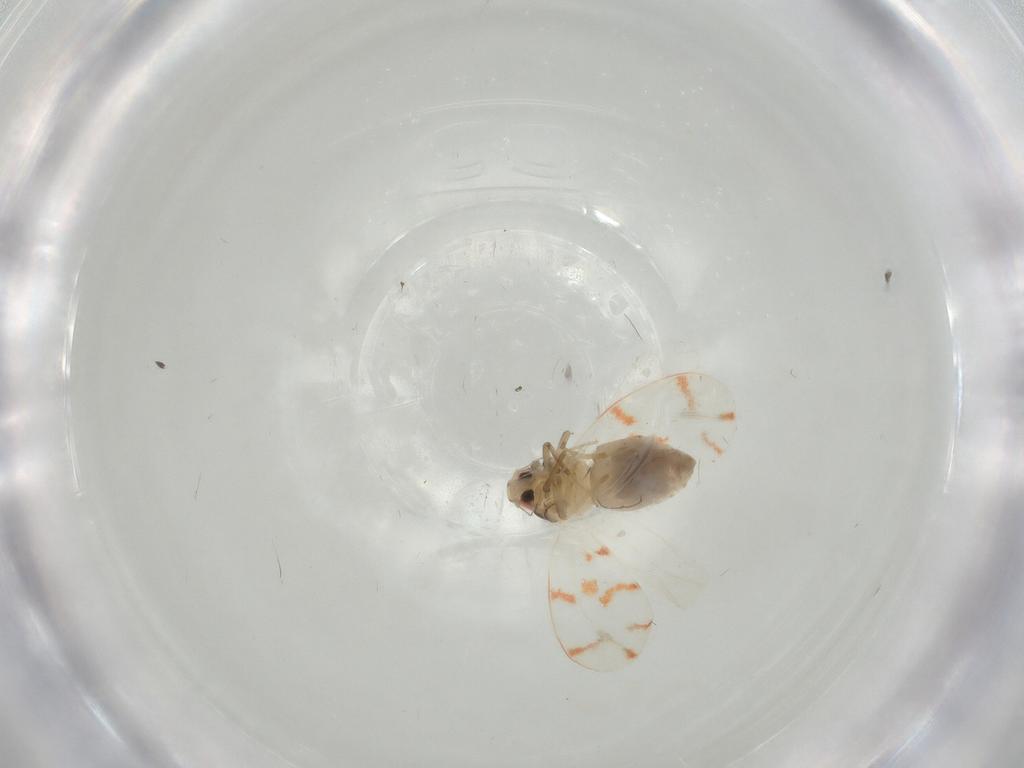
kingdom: Animalia
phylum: Arthropoda
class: Insecta
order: Hemiptera
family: Aleyrodidae
